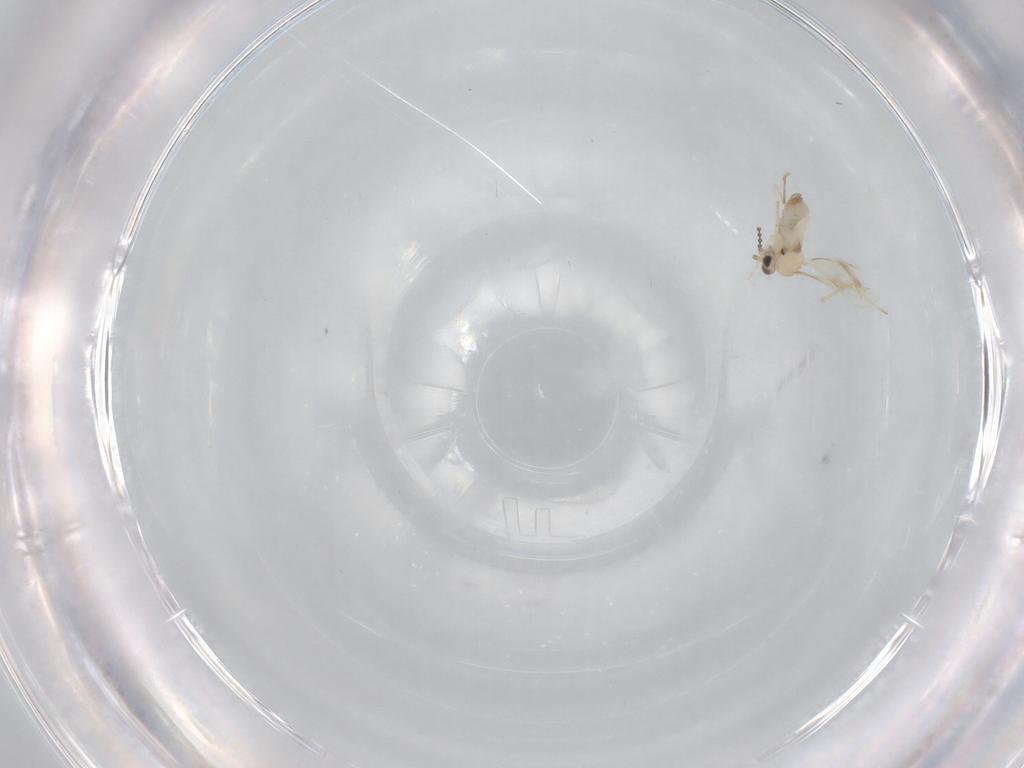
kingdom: Animalia
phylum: Arthropoda
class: Insecta
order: Diptera
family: Cecidomyiidae
